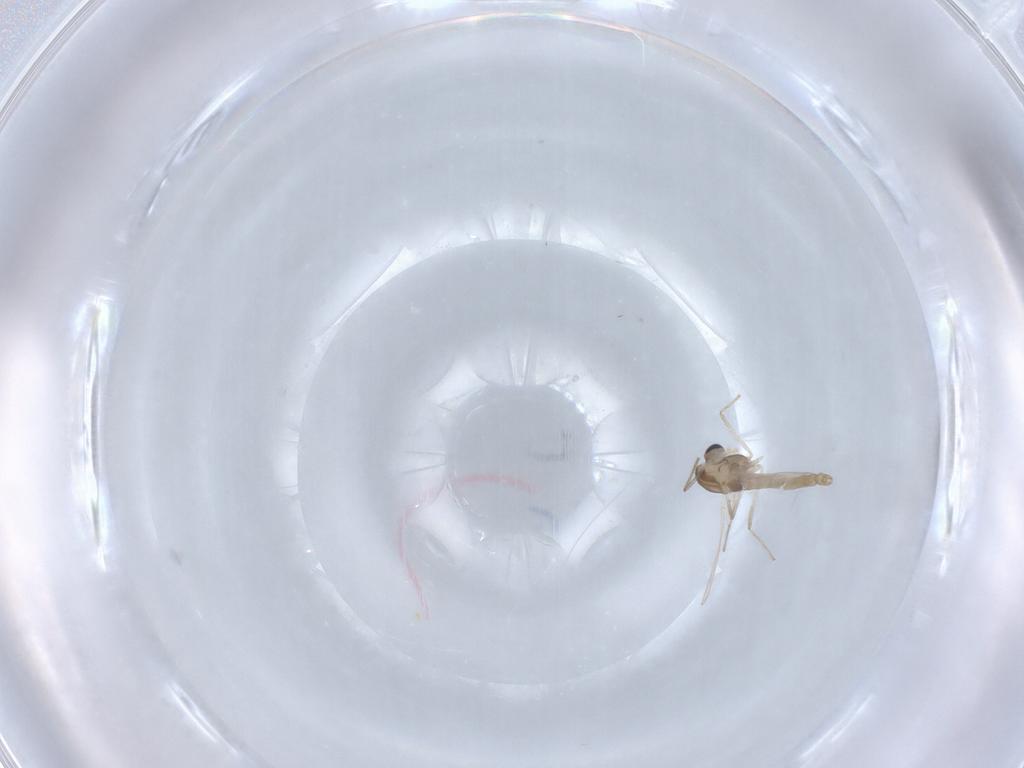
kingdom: Animalia
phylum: Arthropoda
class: Insecta
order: Diptera
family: Chironomidae
